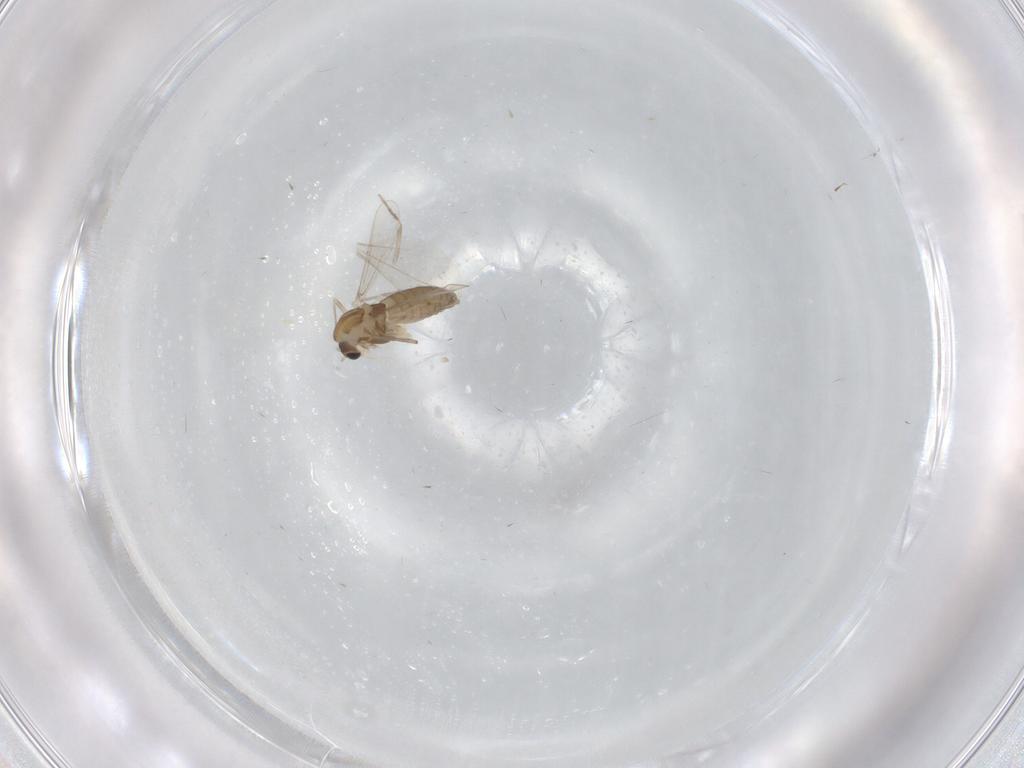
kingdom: Animalia
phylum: Arthropoda
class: Insecta
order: Diptera
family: Chironomidae
